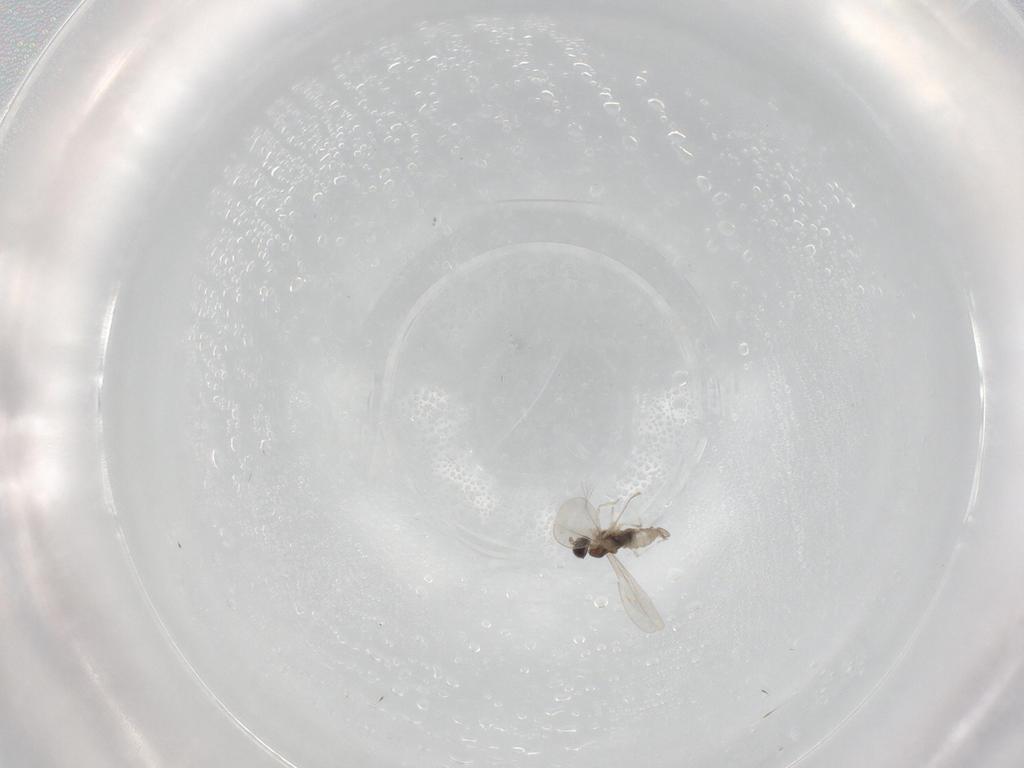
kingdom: Animalia
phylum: Arthropoda
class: Insecta
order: Diptera
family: Cecidomyiidae
